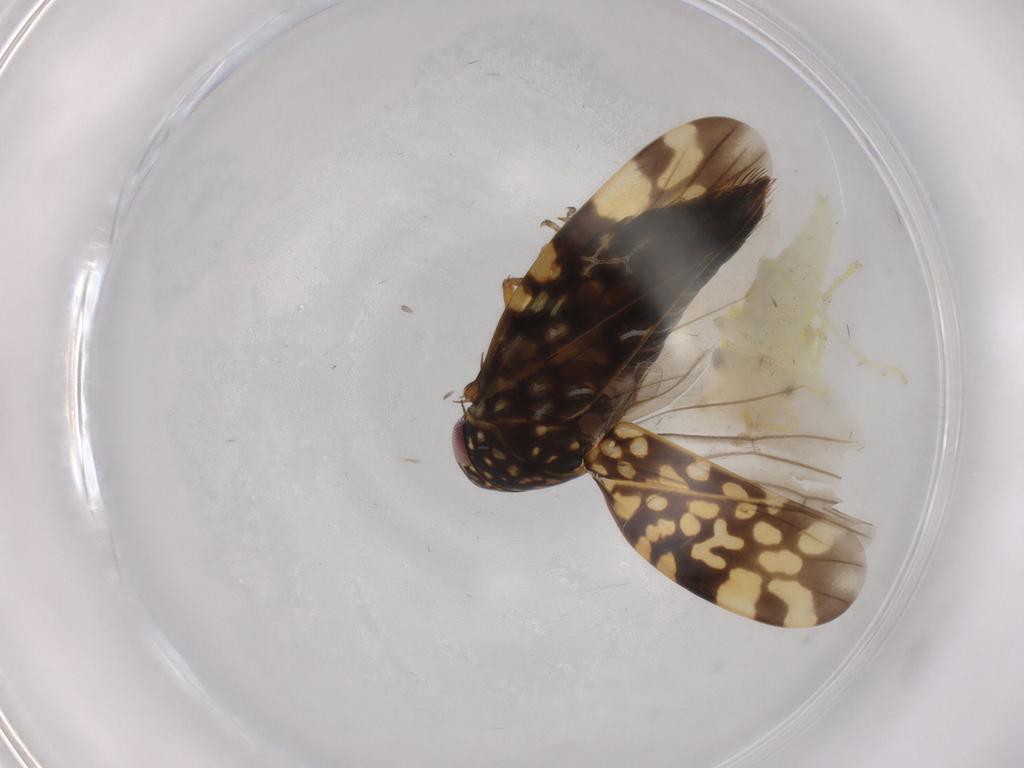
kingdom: Animalia
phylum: Arthropoda
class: Insecta
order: Hemiptera
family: Cicadellidae
